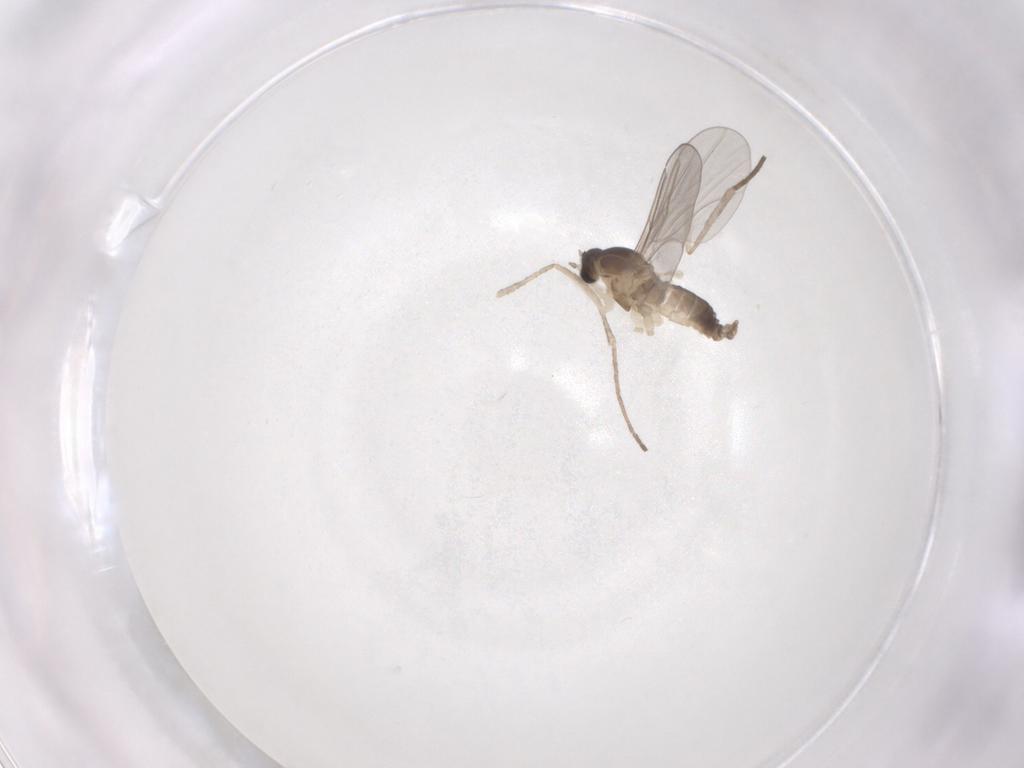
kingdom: Animalia
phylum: Arthropoda
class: Insecta
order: Diptera
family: Cecidomyiidae
